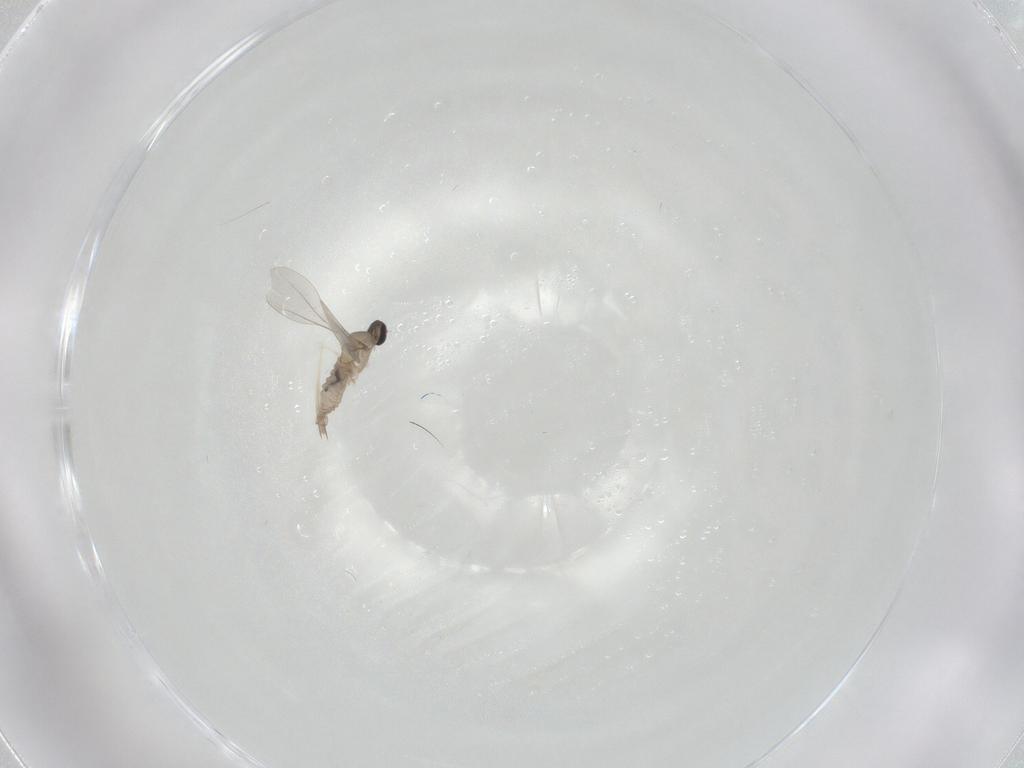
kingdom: Animalia
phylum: Arthropoda
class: Insecta
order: Diptera
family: Cecidomyiidae
